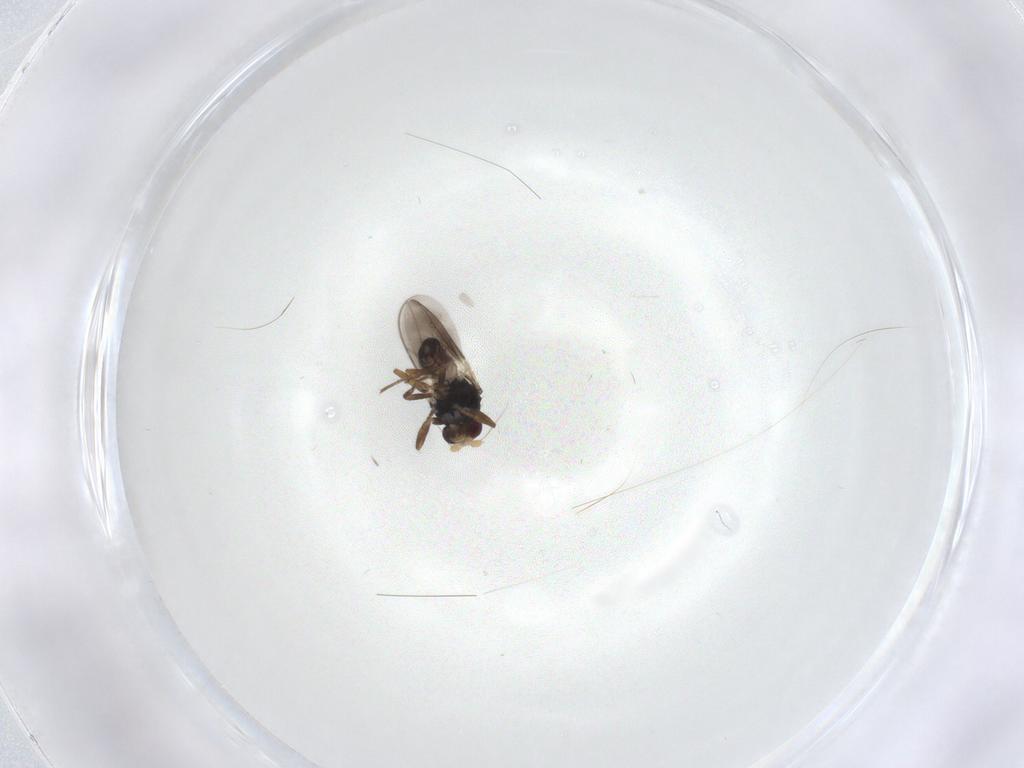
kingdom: Animalia
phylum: Arthropoda
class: Insecta
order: Diptera
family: Sphaeroceridae
